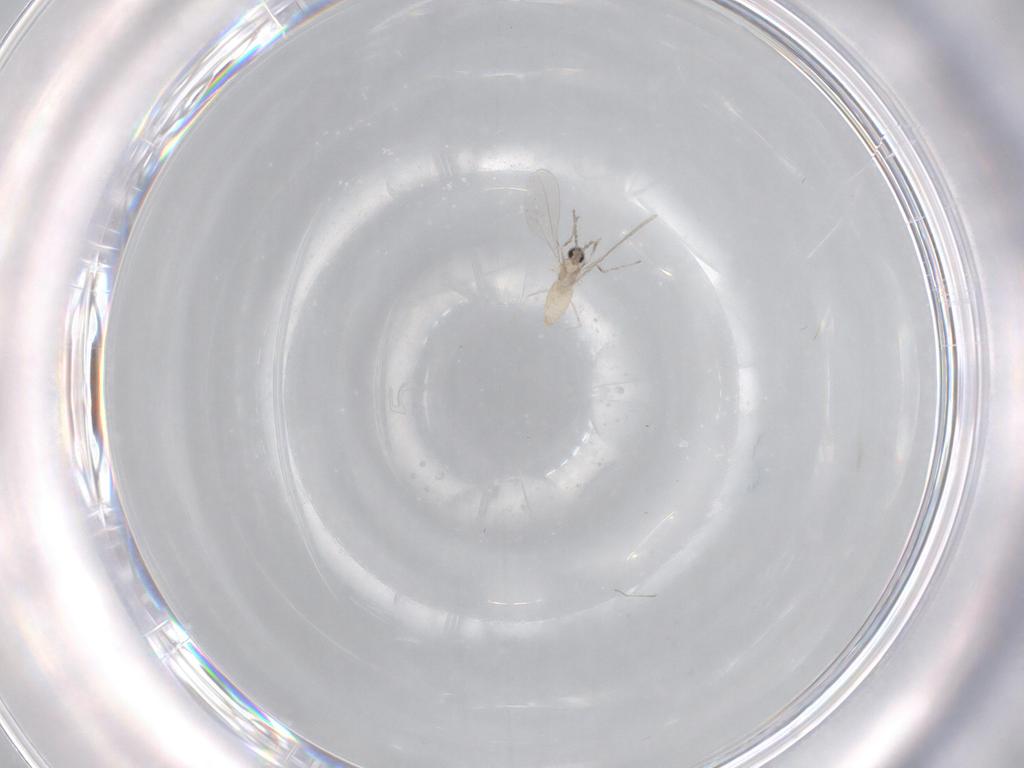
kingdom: Animalia
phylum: Arthropoda
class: Insecta
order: Diptera
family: Cecidomyiidae
